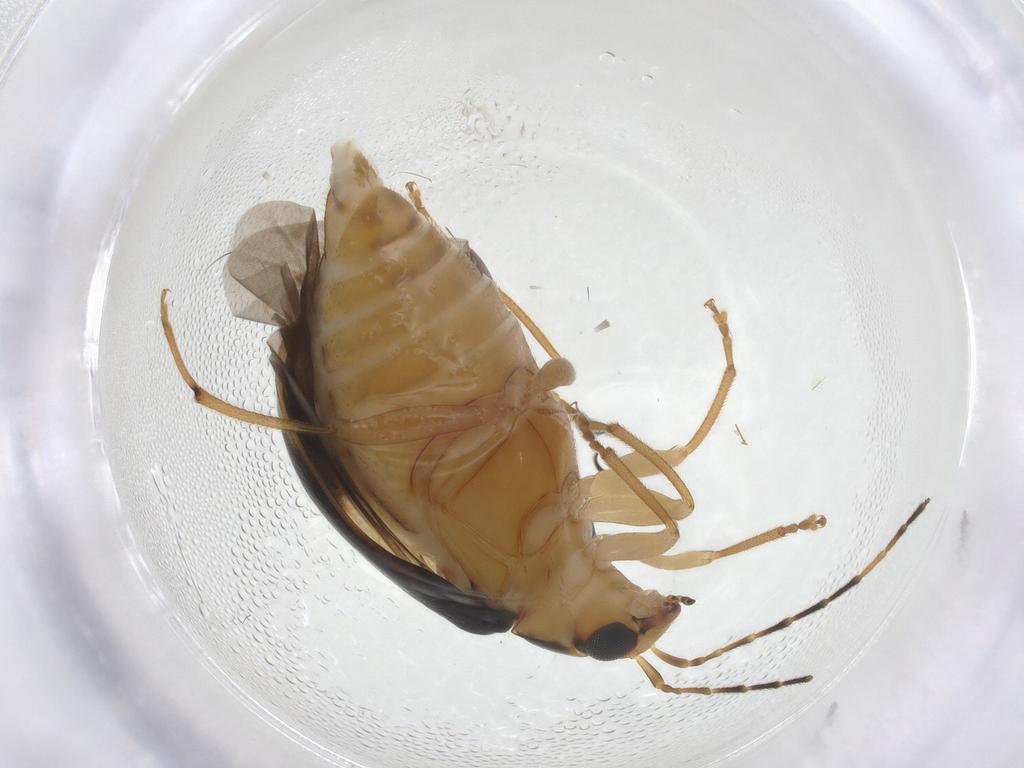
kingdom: Animalia
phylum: Arthropoda
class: Insecta
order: Coleoptera
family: Chrysomelidae
